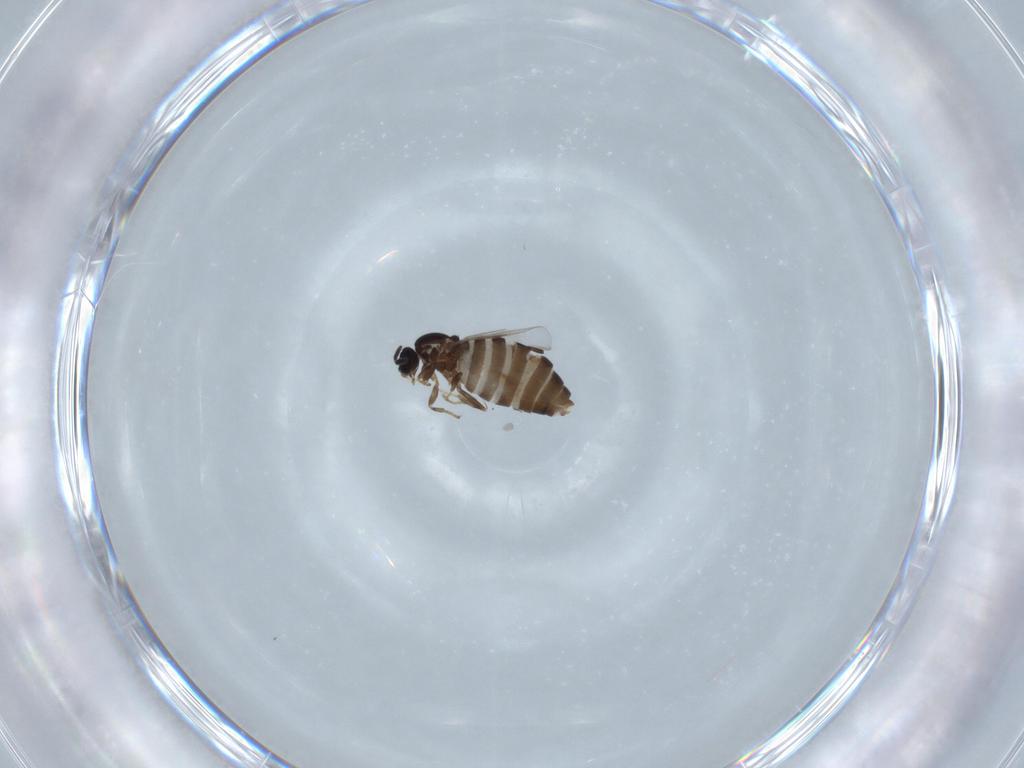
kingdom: Animalia
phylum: Arthropoda
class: Insecta
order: Diptera
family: Scatopsidae
